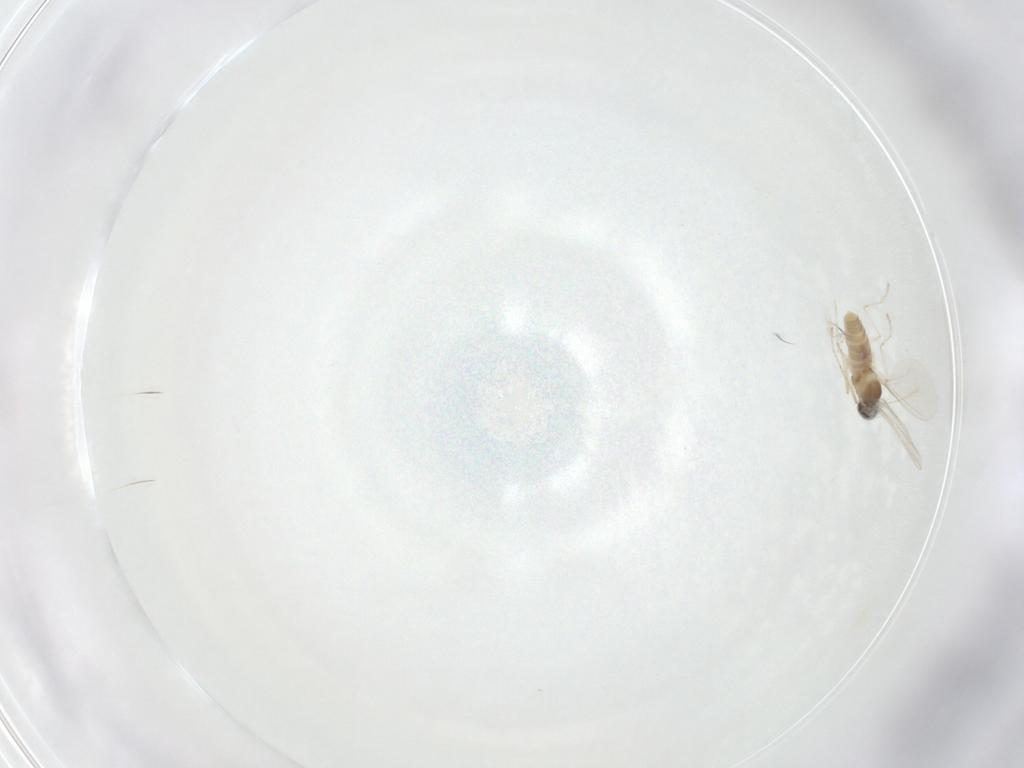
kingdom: Animalia
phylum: Arthropoda
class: Insecta
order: Diptera
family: Cecidomyiidae
